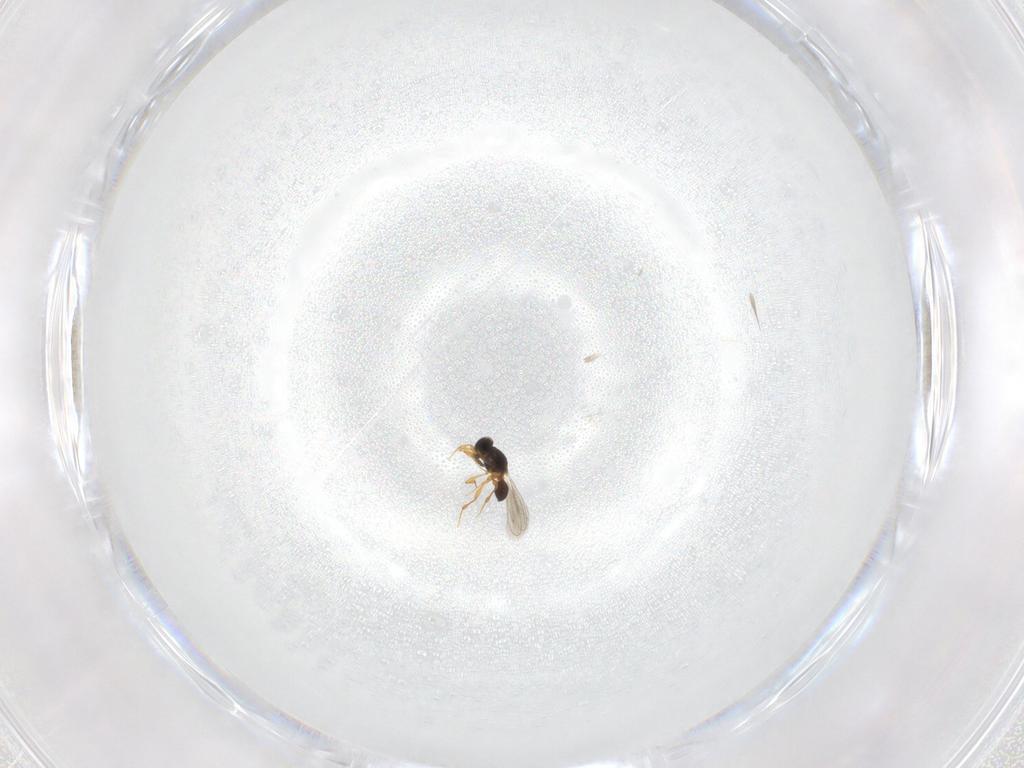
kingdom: Animalia
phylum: Arthropoda
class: Insecta
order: Hymenoptera
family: Platygastridae
